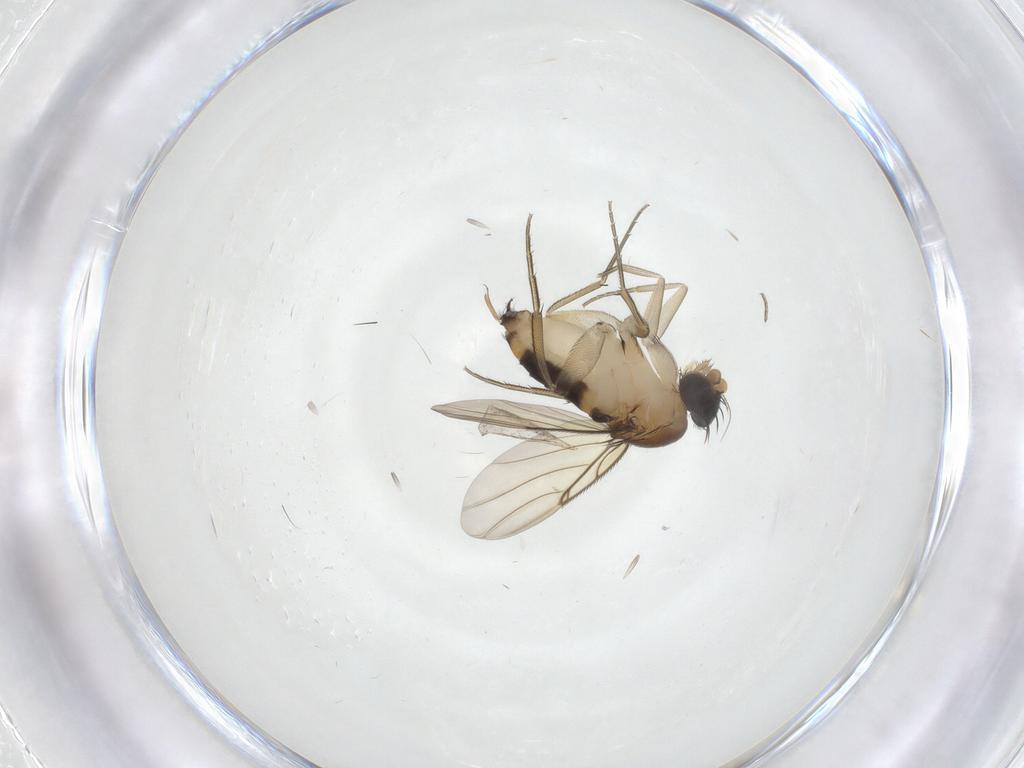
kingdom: Animalia
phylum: Arthropoda
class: Insecta
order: Diptera
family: Phoridae
